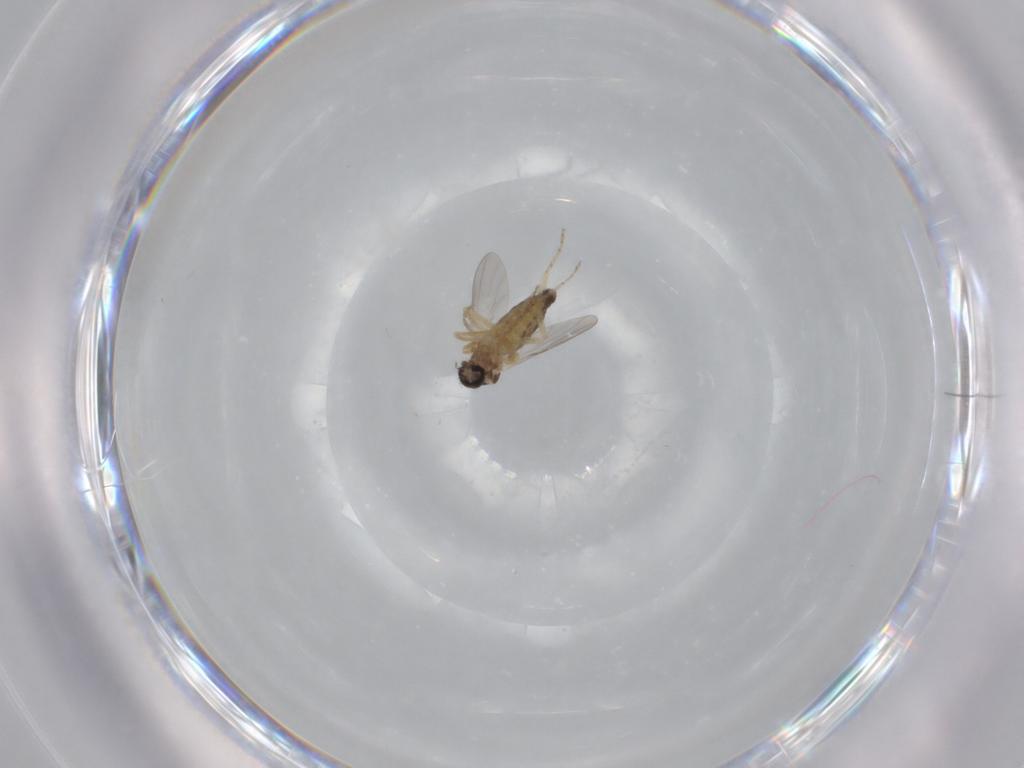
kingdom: Animalia
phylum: Arthropoda
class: Insecta
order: Diptera
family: Ceratopogonidae
